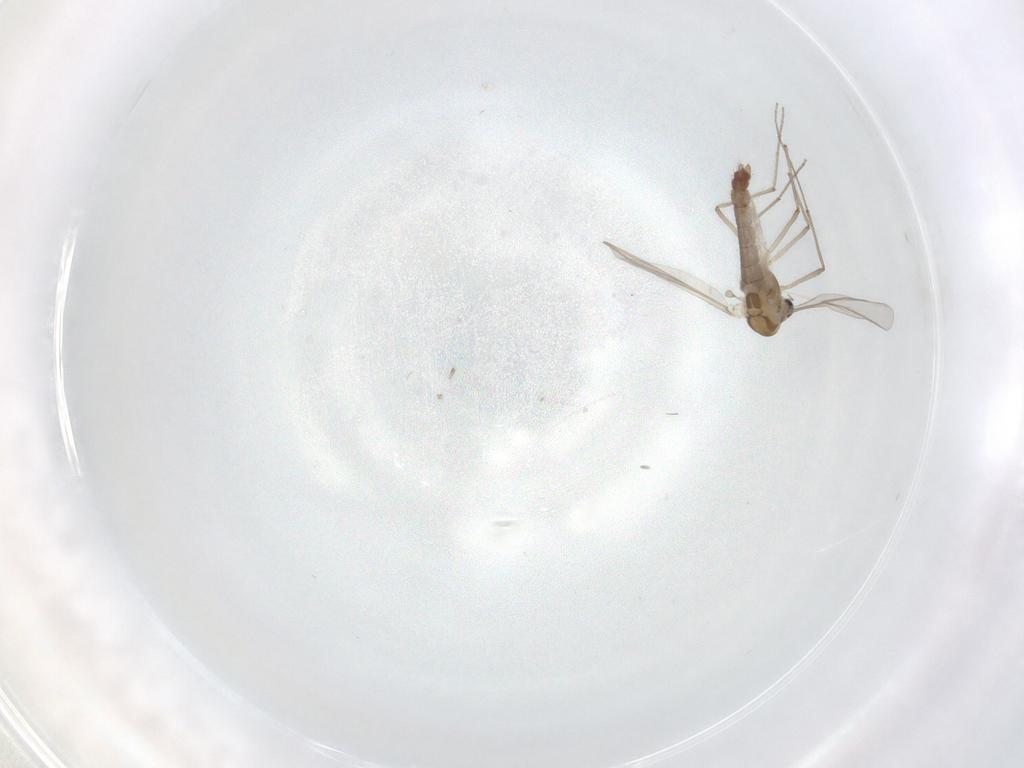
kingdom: Animalia
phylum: Arthropoda
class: Insecta
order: Diptera
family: Chironomidae
